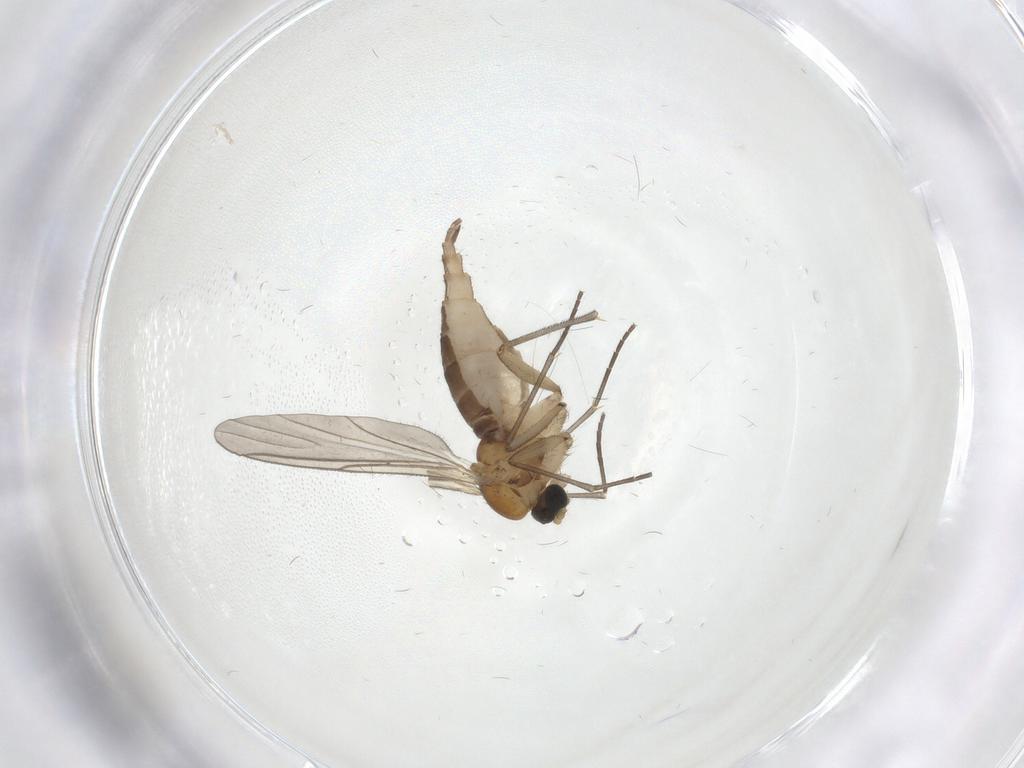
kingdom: Animalia
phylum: Arthropoda
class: Insecta
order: Diptera
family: Sciaridae
